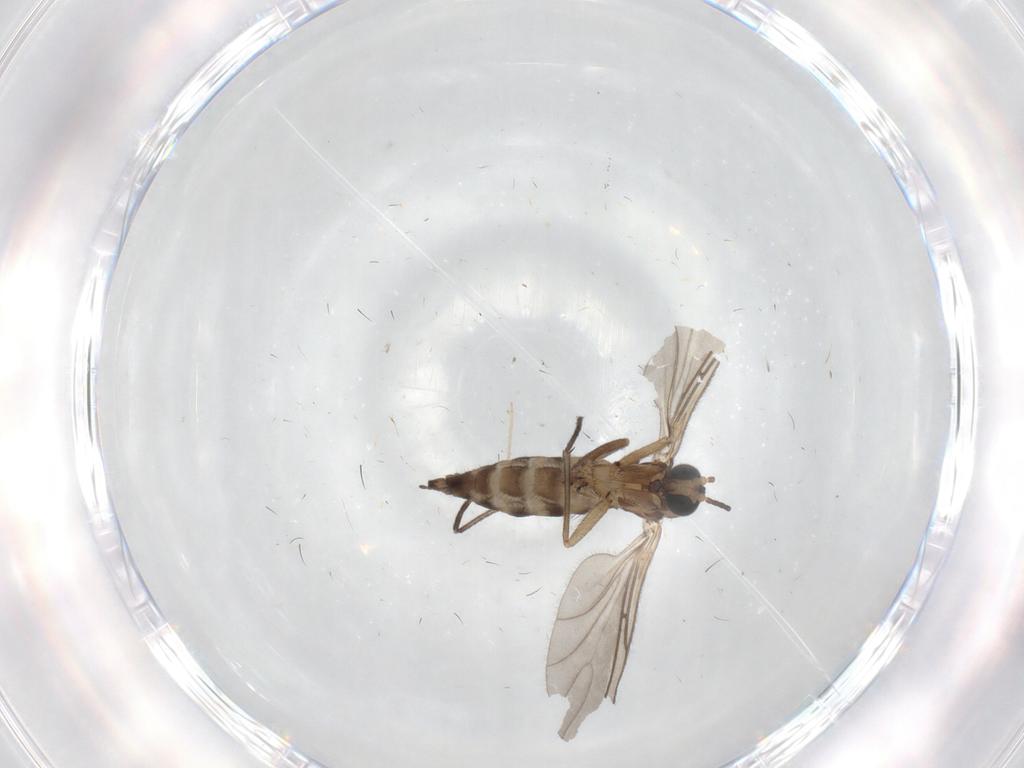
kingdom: Animalia
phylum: Arthropoda
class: Insecta
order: Diptera
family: Sciaridae
